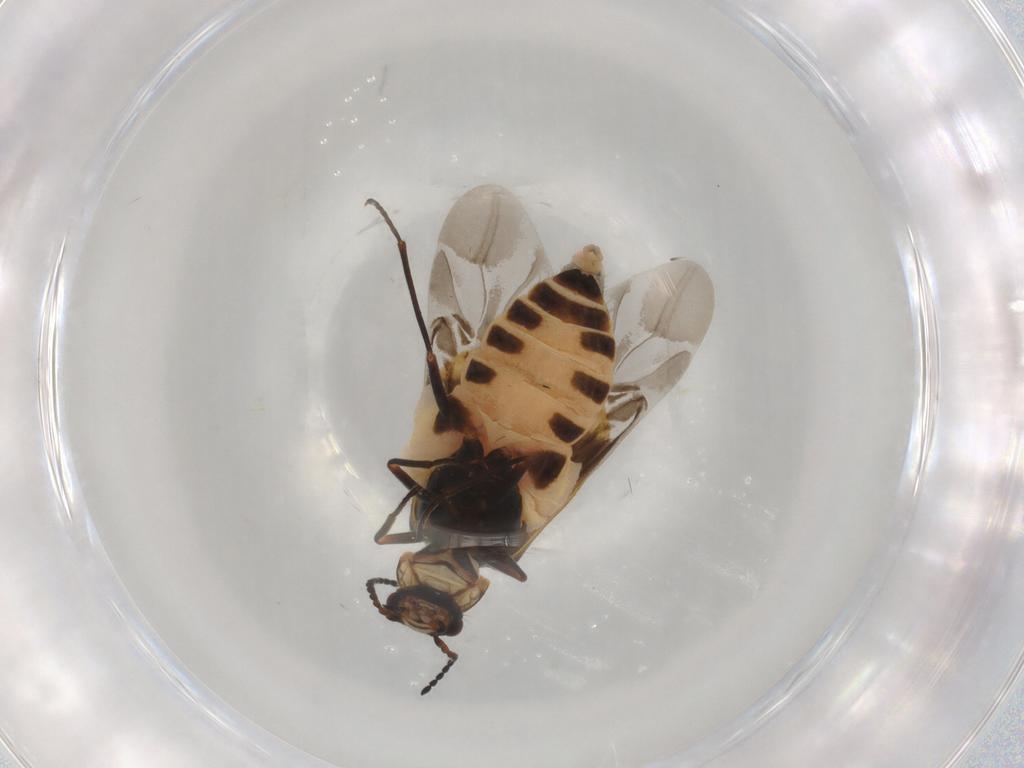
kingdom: Animalia
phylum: Arthropoda
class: Insecta
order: Coleoptera
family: Melyridae
